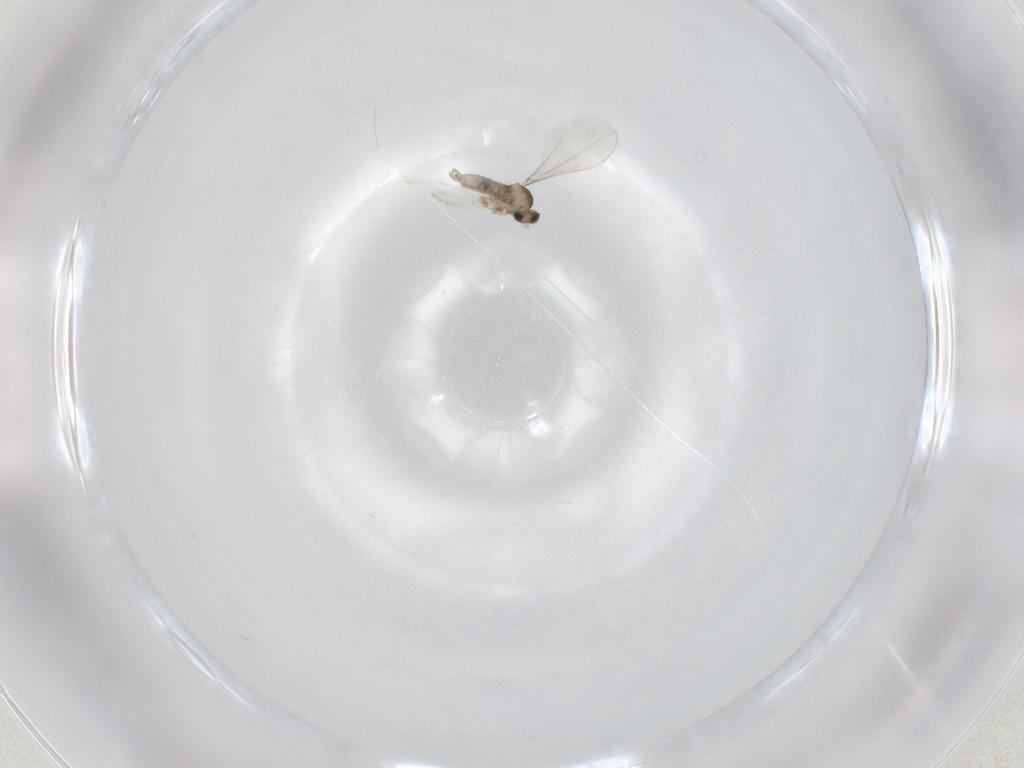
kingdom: Animalia
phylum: Arthropoda
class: Insecta
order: Diptera
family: Cecidomyiidae
